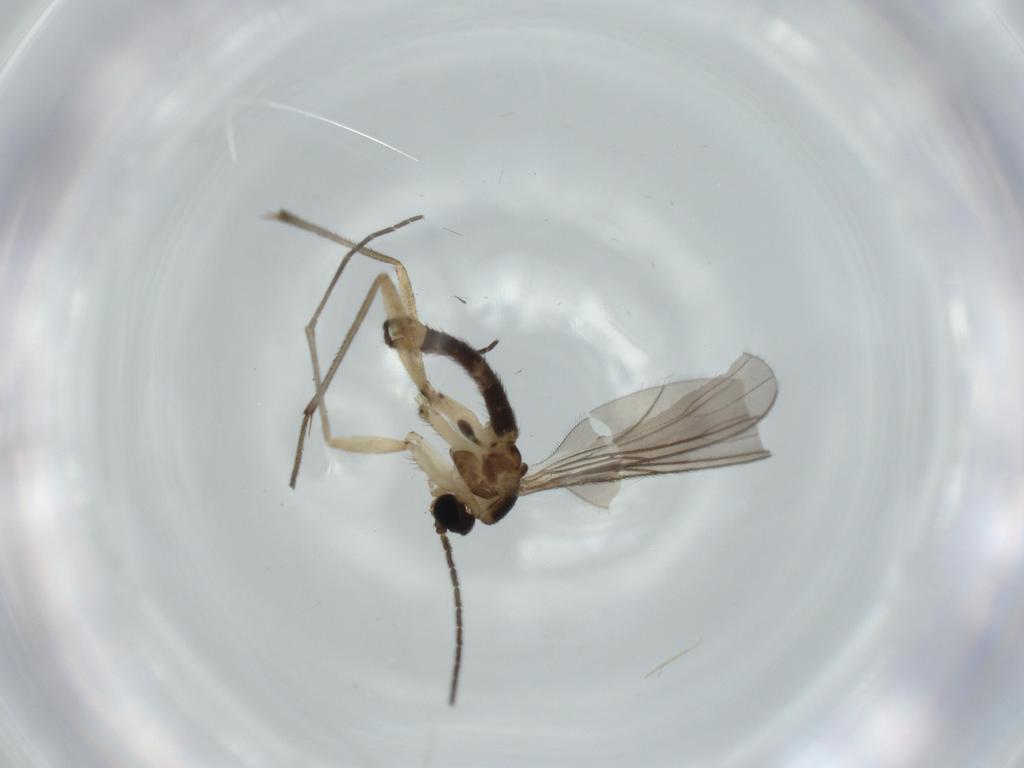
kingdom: Animalia
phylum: Arthropoda
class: Insecta
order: Diptera
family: Sciaridae
